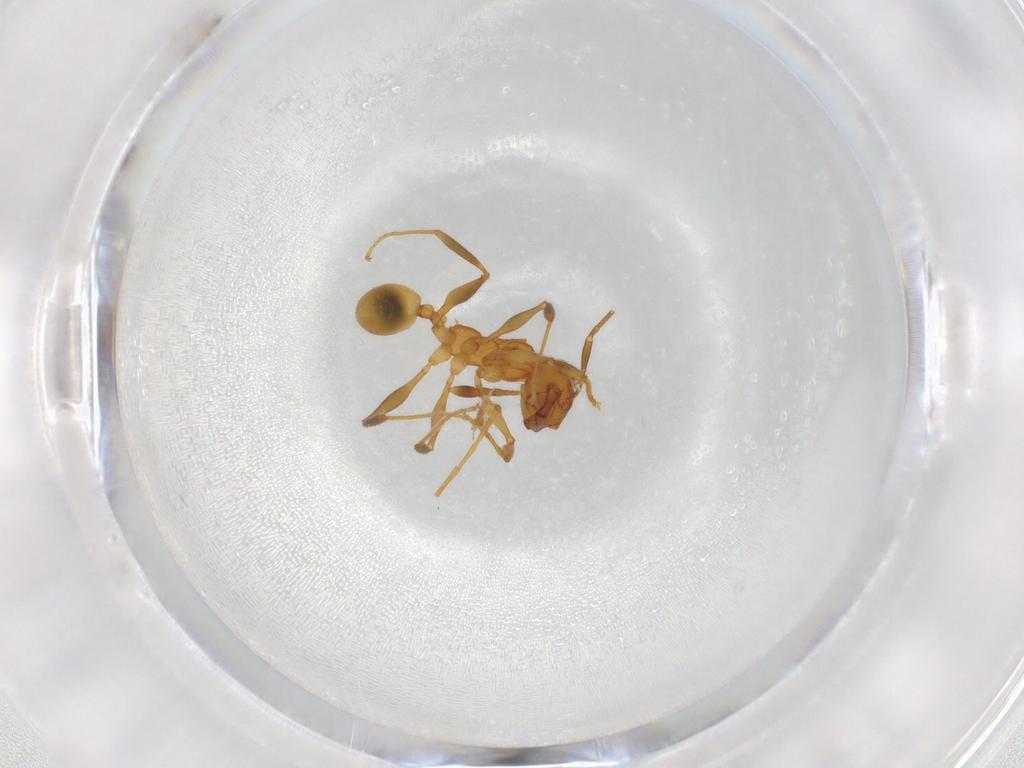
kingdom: Animalia
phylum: Arthropoda
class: Insecta
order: Hymenoptera
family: Formicidae
